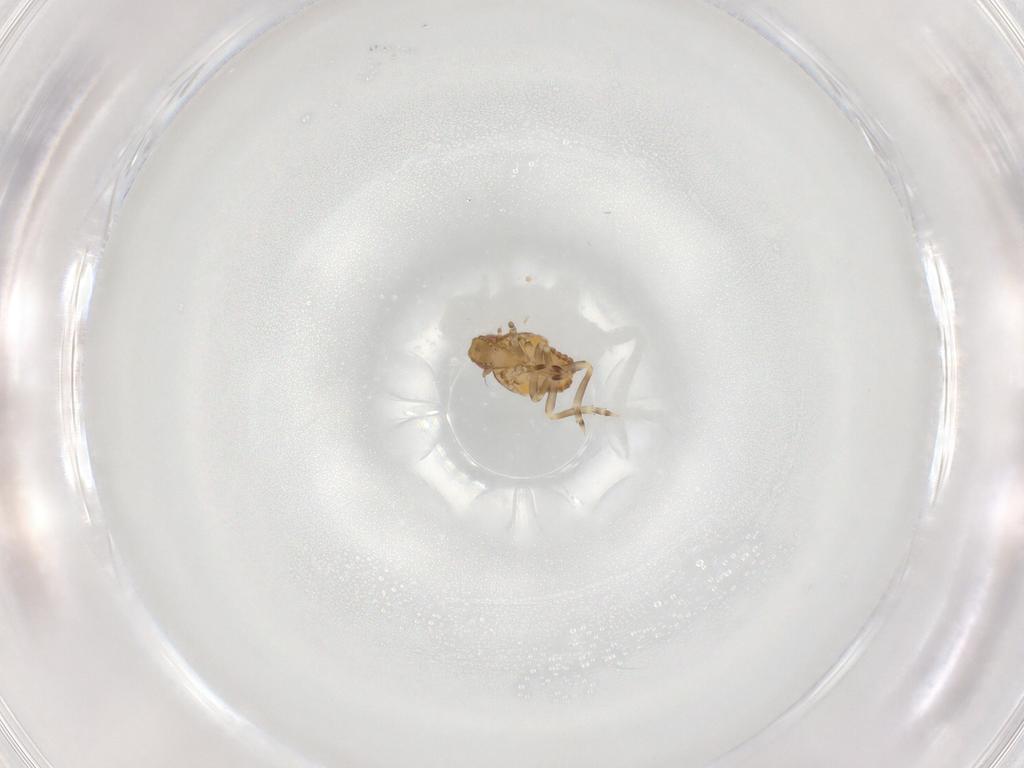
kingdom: Animalia
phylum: Arthropoda
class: Insecta
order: Hemiptera
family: Flatidae
